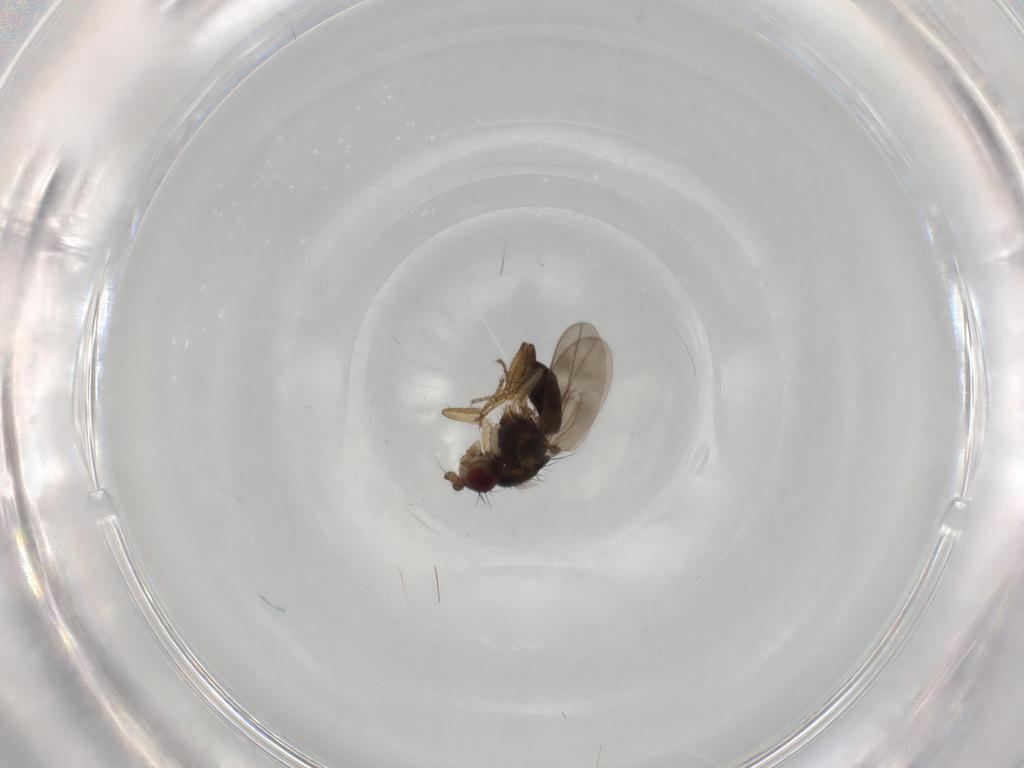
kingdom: Animalia
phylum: Arthropoda
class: Insecta
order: Diptera
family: Sphaeroceridae
